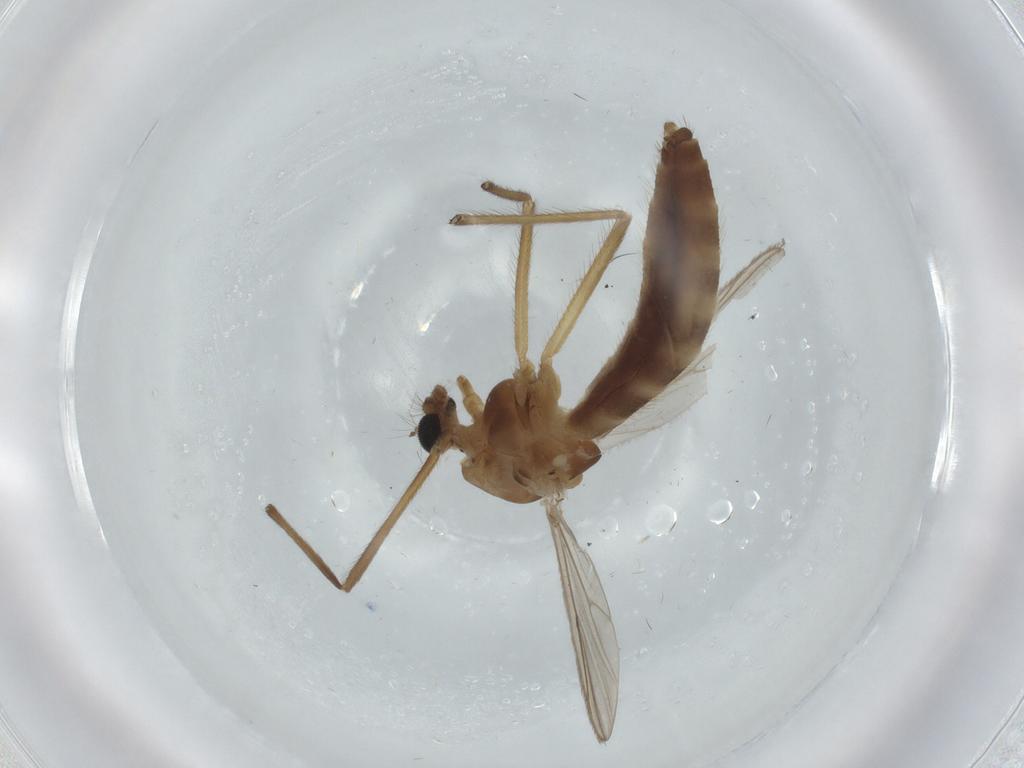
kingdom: Animalia
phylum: Arthropoda
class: Insecta
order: Diptera
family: Chironomidae
